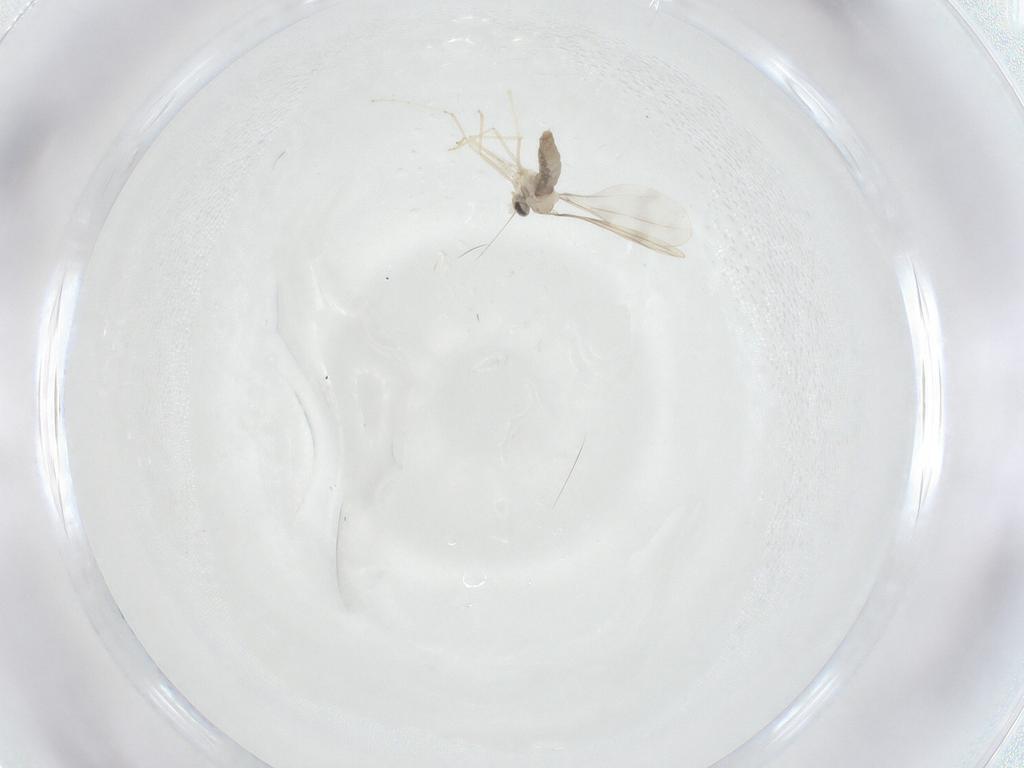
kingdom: Animalia
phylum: Arthropoda
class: Insecta
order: Diptera
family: Cecidomyiidae
